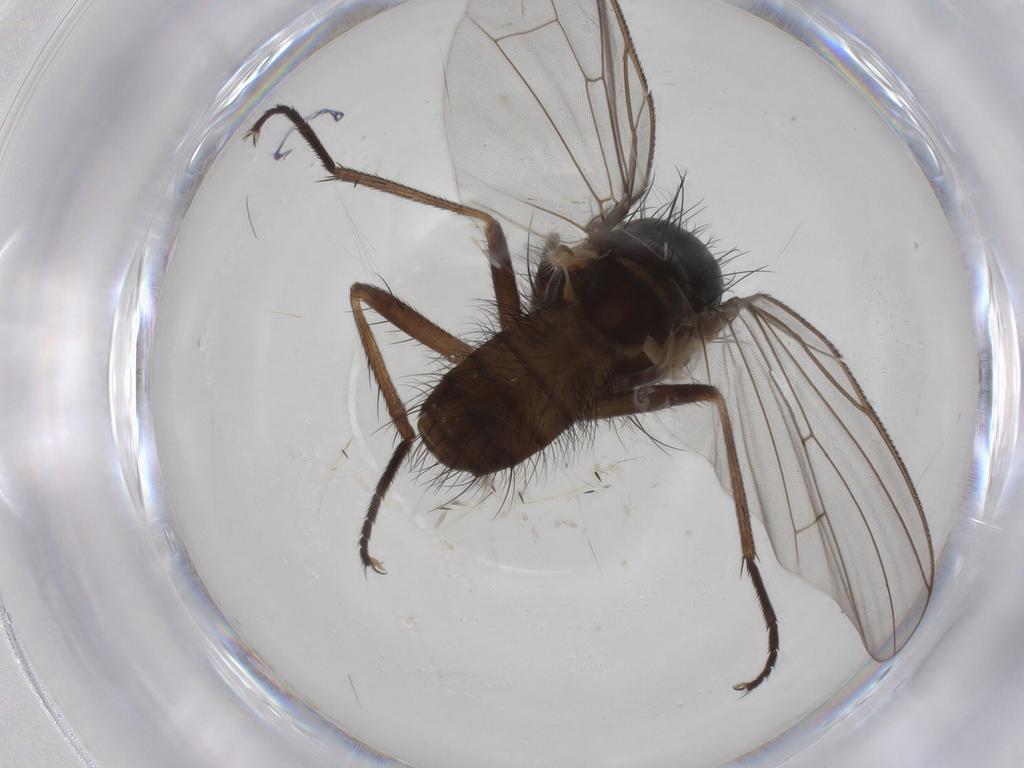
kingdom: Animalia
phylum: Arthropoda
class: Insecta
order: Diptera
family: Anthomyiidae
